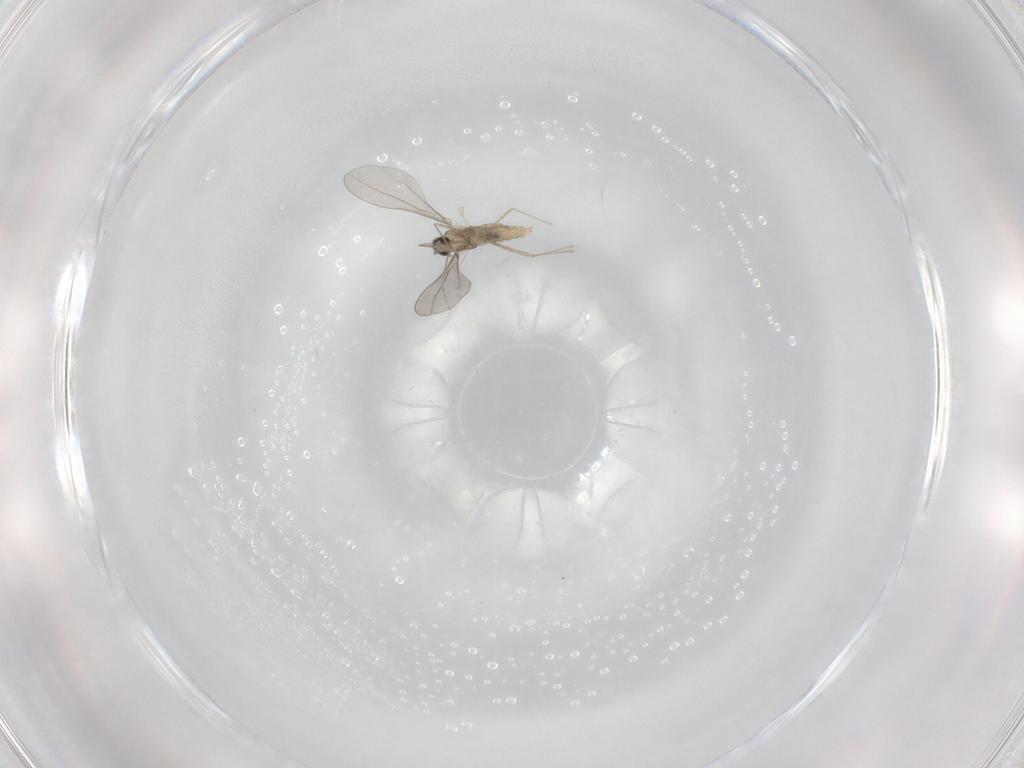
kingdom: Animalia
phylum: Arthropoda
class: Insecta
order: Diptera
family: Cecidomyiidae
